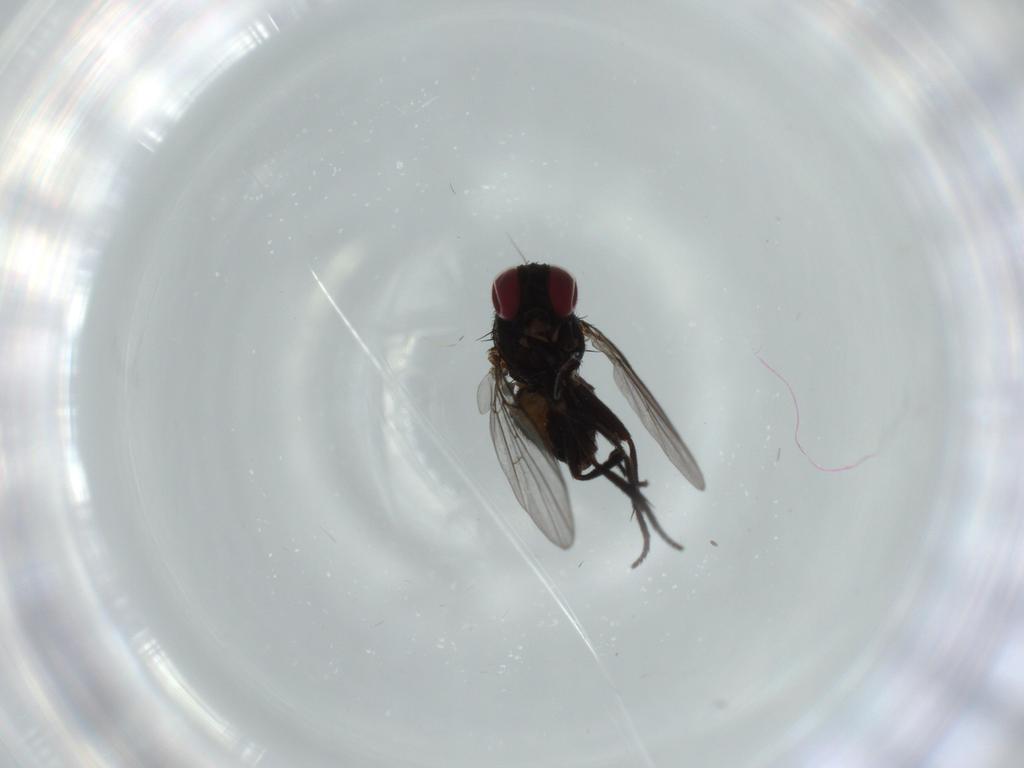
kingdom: Animalia
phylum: Arthropoda
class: Insecta
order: Diptera
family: Agromyzidae
